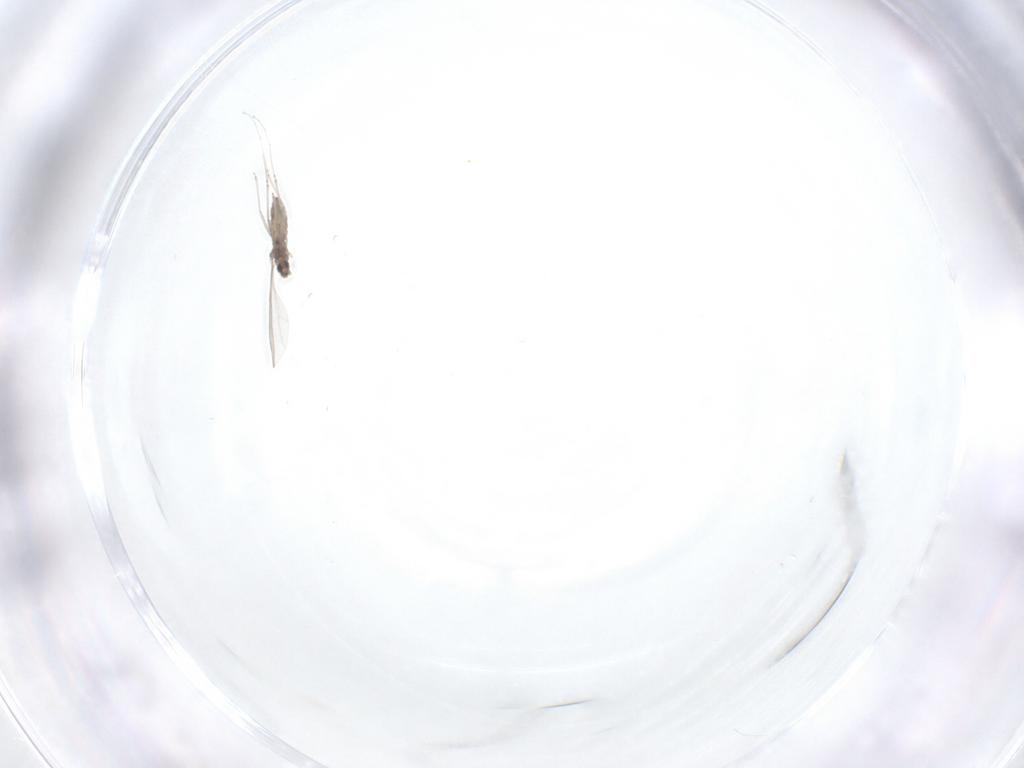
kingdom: Animalia
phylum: Arthropoda
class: Insecta
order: Diptera
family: Cecidomyiidae
